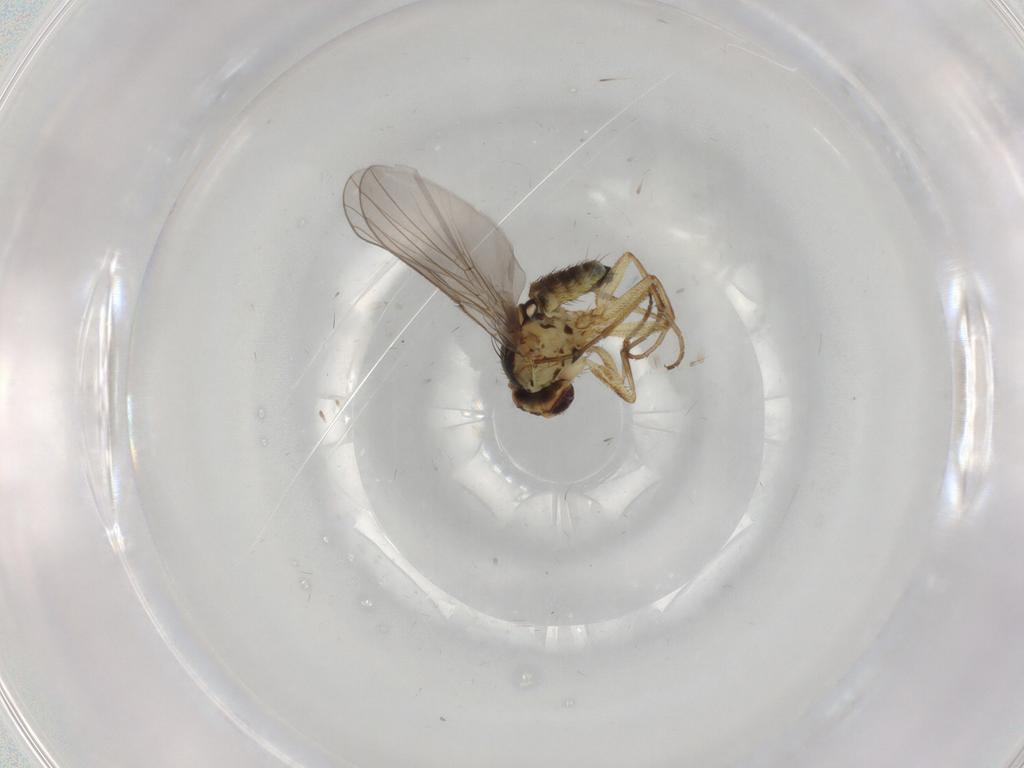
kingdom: Animalia
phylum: Arthropoda
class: Insecta
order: Diptera
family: Agromyzidae
